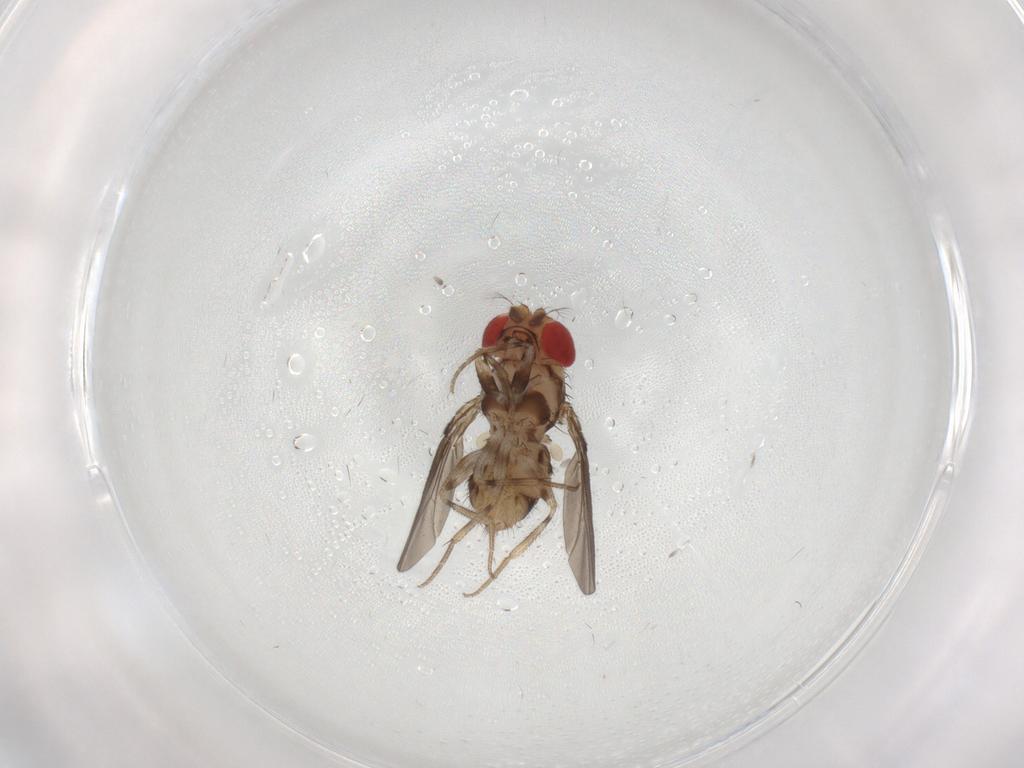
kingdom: Animalia
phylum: Arthropoda
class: Insecta
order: Diptera
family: Drosophilidae
